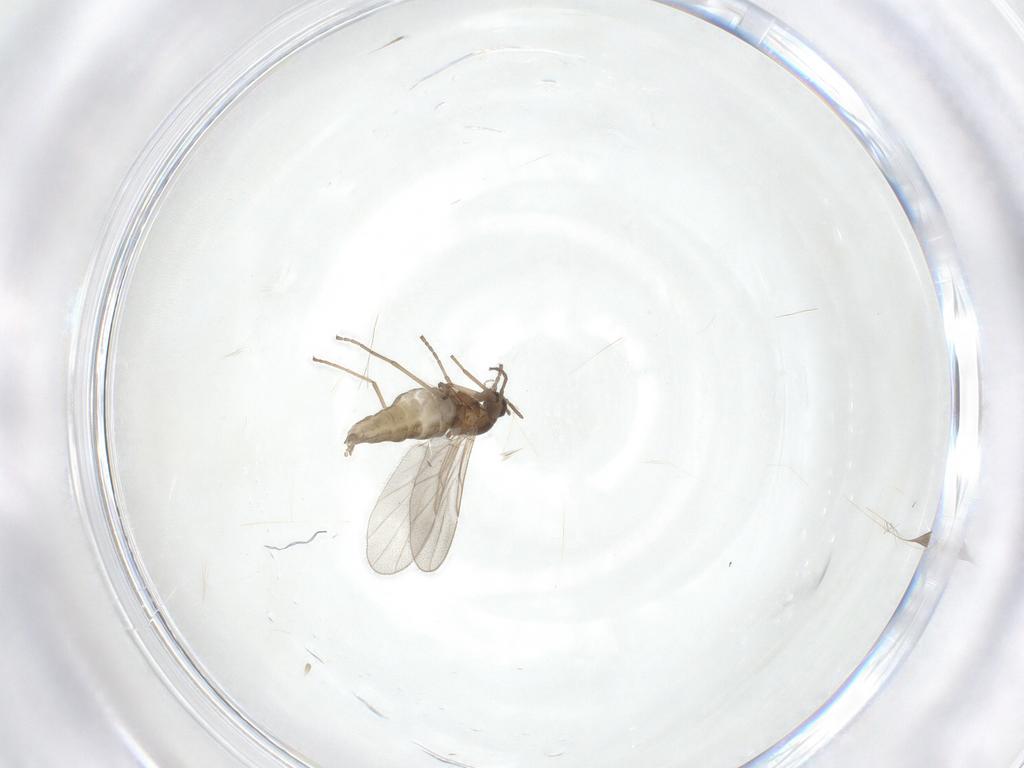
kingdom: Animalia
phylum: Arthropoda
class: Insecta
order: Diptera
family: Cecidomyiidae
